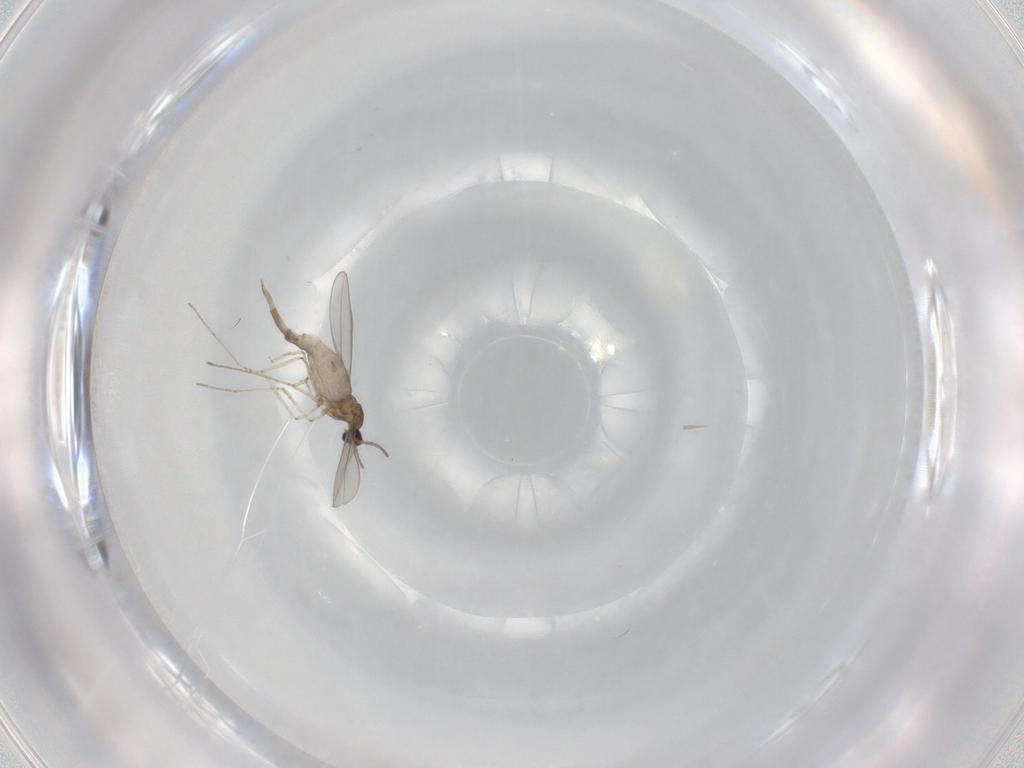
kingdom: Animalia
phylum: Arthropoda
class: Insecta
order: Diptera
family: Cecidomyiidae
